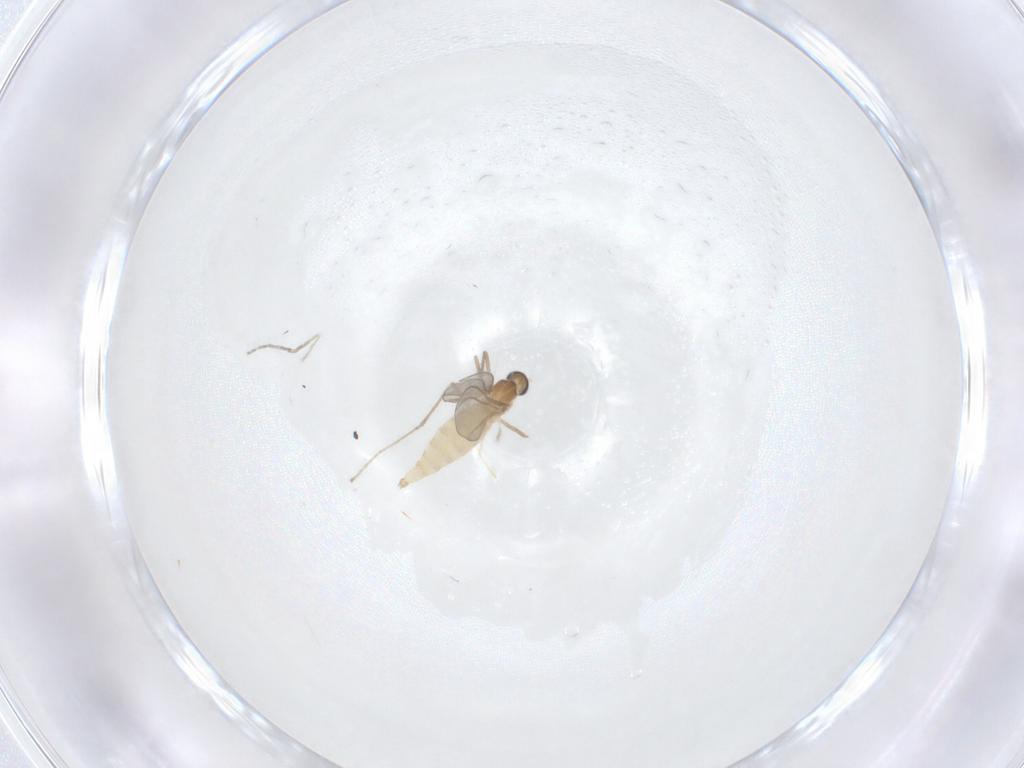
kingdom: Animalia
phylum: Arthropoda
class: Insecta
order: Diptera
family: Cecidomyiidae
